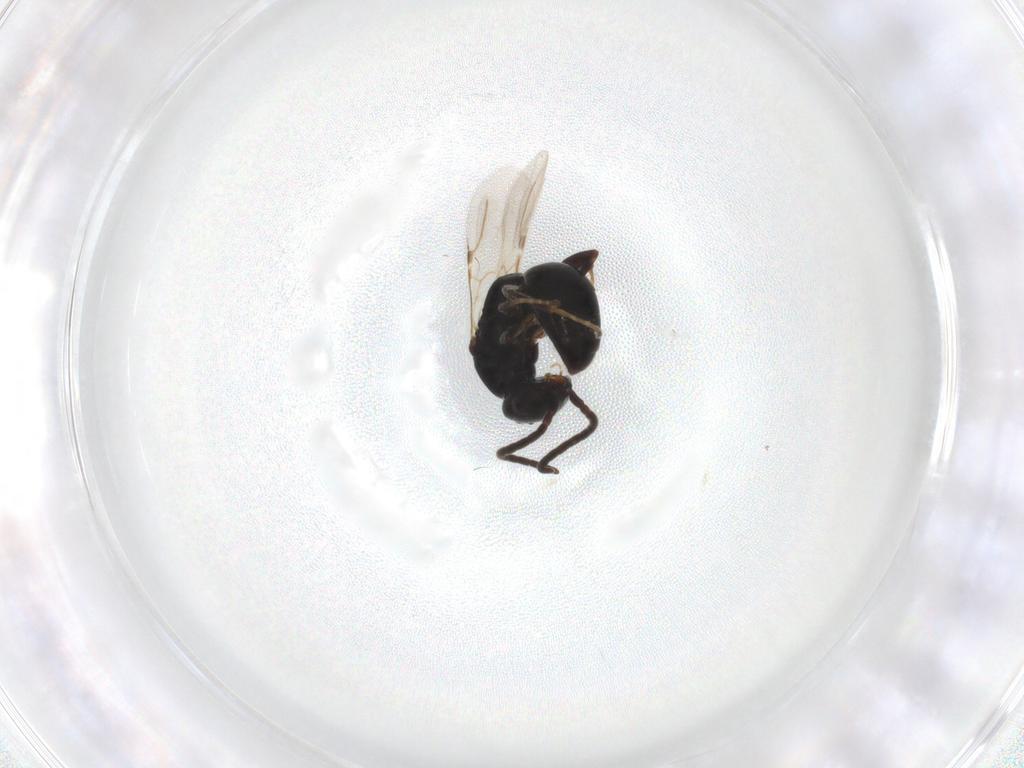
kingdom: Animalia
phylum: Arthropoda
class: Insecta
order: Hymenoptera
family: Bethylidae
